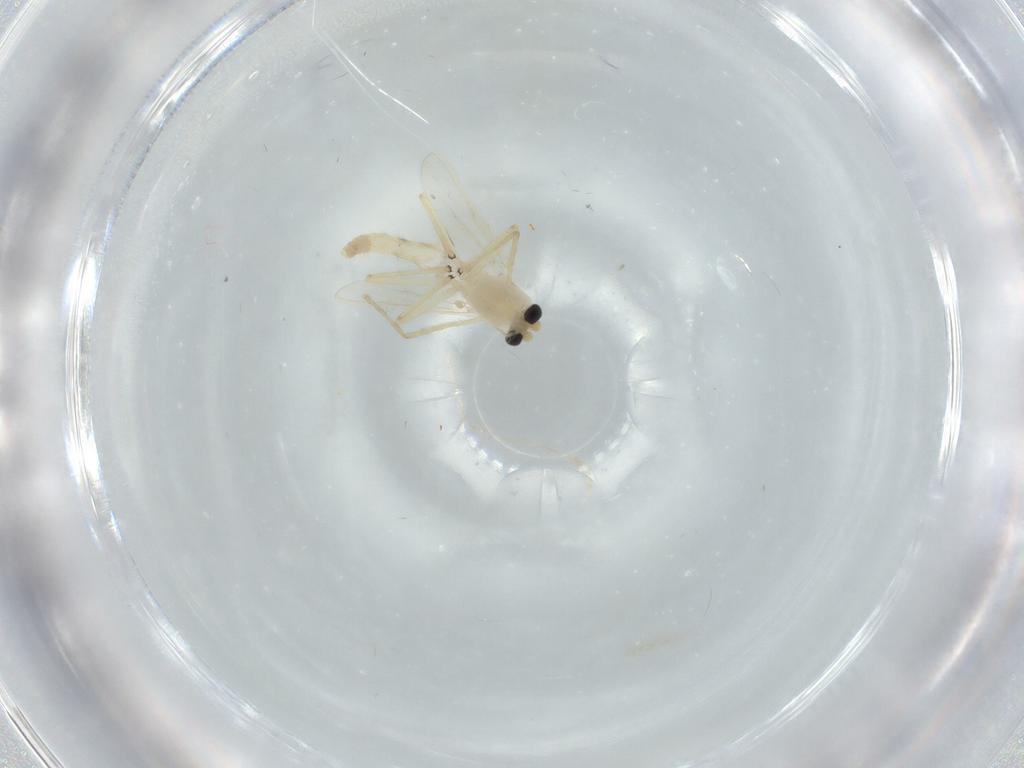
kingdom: Animalia
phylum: Arthropoda
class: Insecta
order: Diptera
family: Chironomidae
